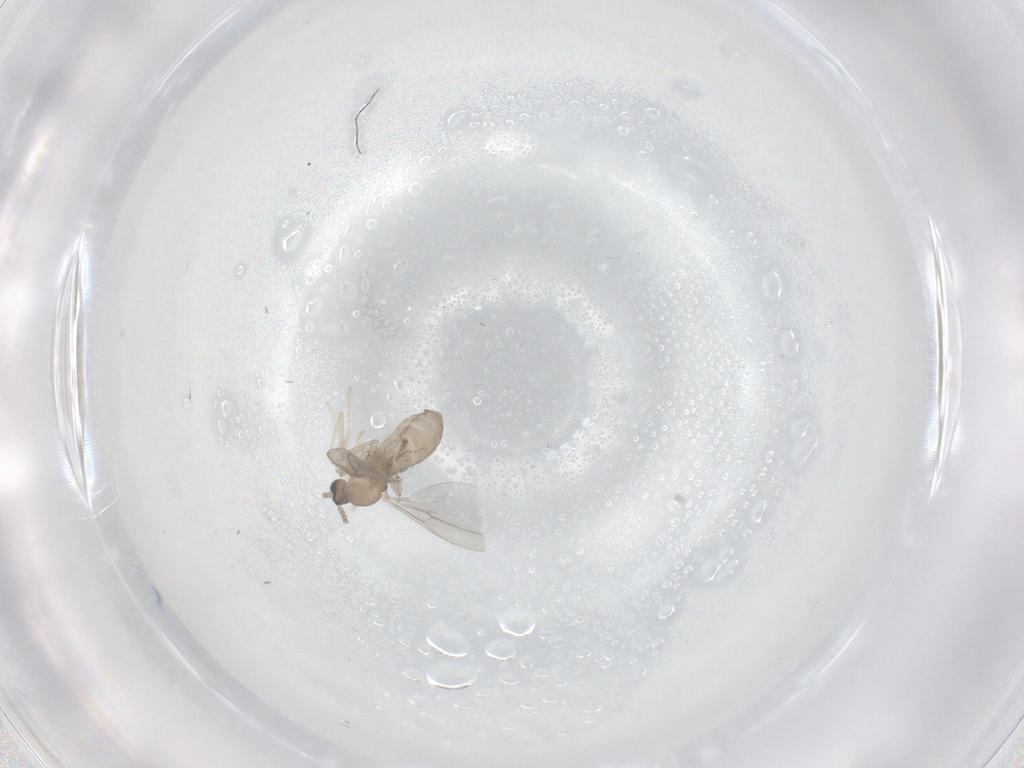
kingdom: Animalia
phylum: Arthropoda
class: Insecta
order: Diptera
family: Cecidomyiidae
